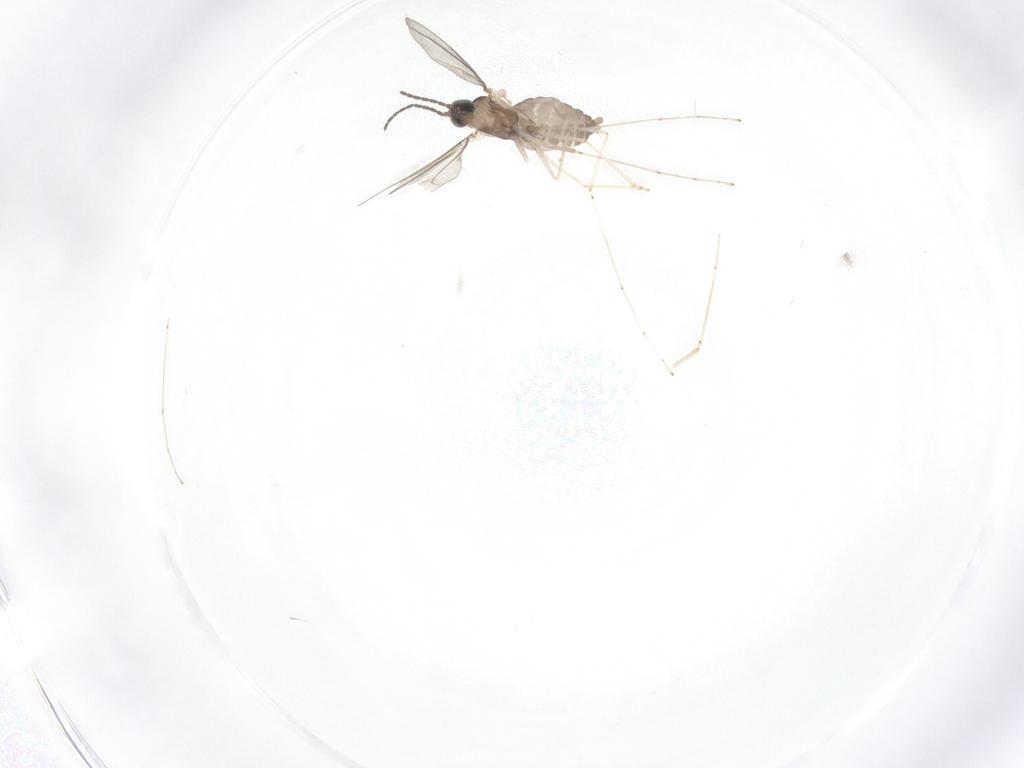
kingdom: Animalia
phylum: Arthropoda
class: Insecta
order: Diptera
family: Cecidomyiidae
